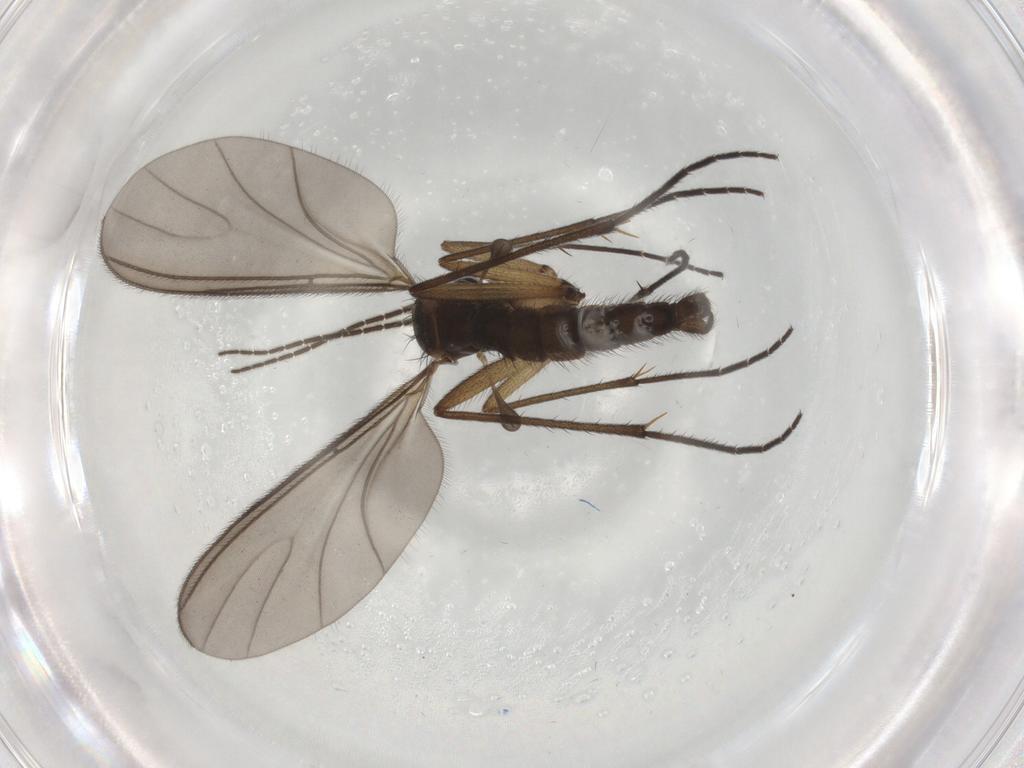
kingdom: Animalia
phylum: Arthropoda
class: Insecta
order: Diptera
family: Sciaridae
